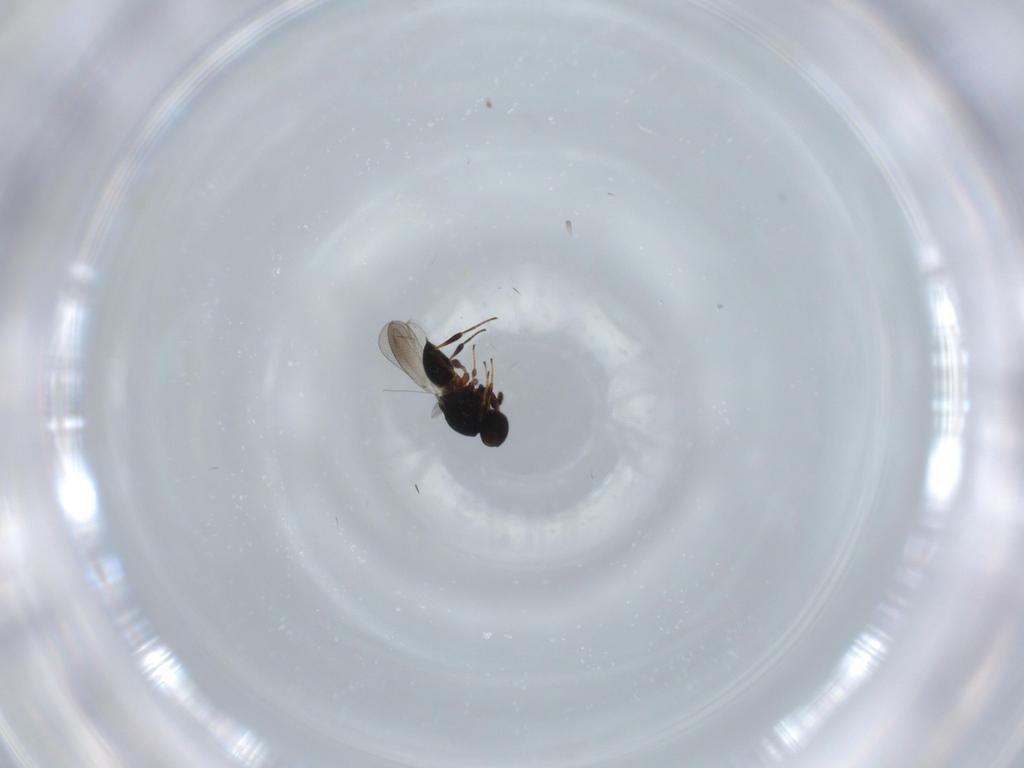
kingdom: Animalia
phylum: Arthropoda
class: Insecta
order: Hymenoptera
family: Platygastridae
